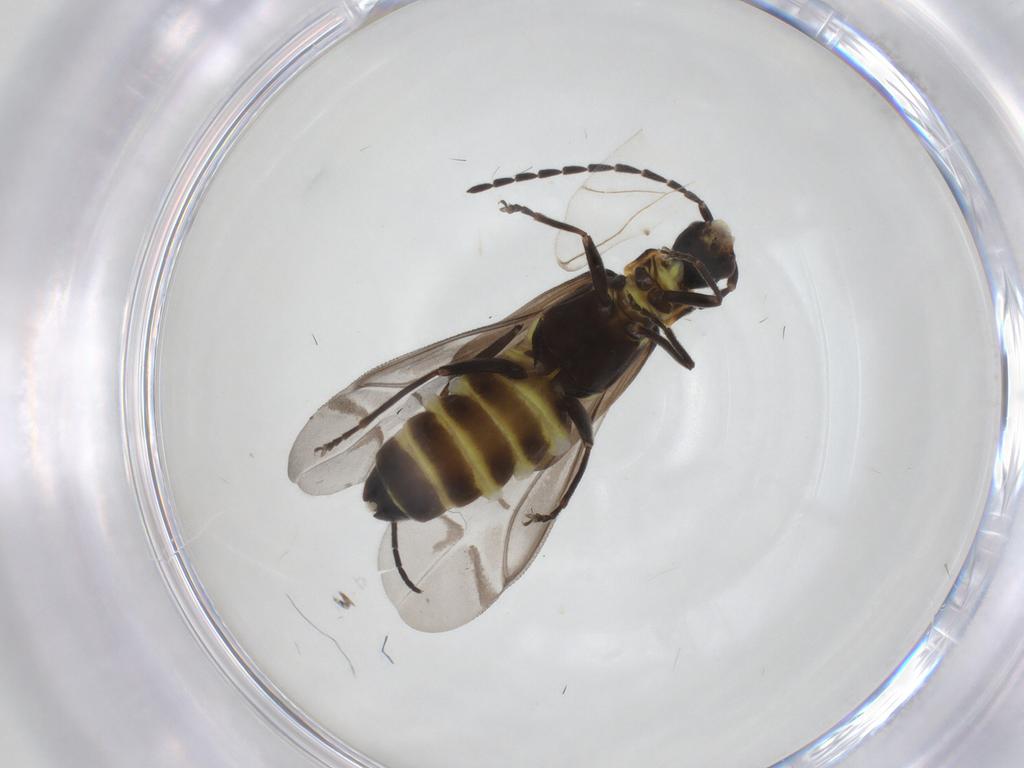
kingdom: Animalia
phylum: Arthropoda
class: Insecta
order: Coleoptera
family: Cantharidae
